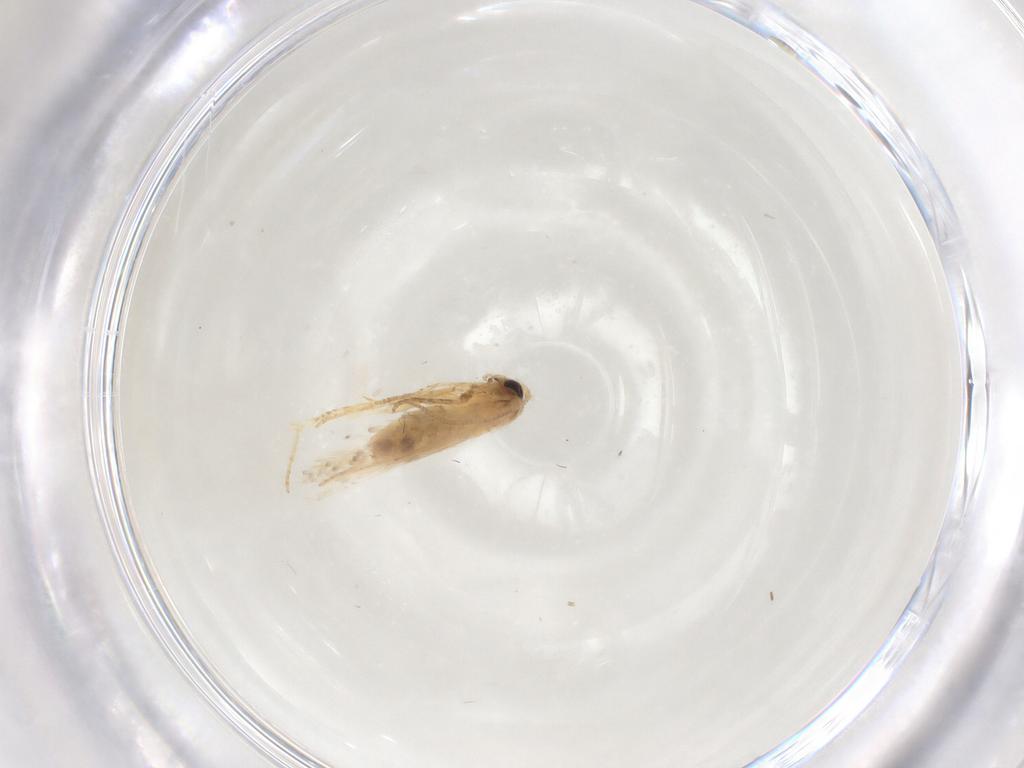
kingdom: Animalia
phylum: Arthropoda
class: Insecta
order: Lepidoptera
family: Nepticulidae
